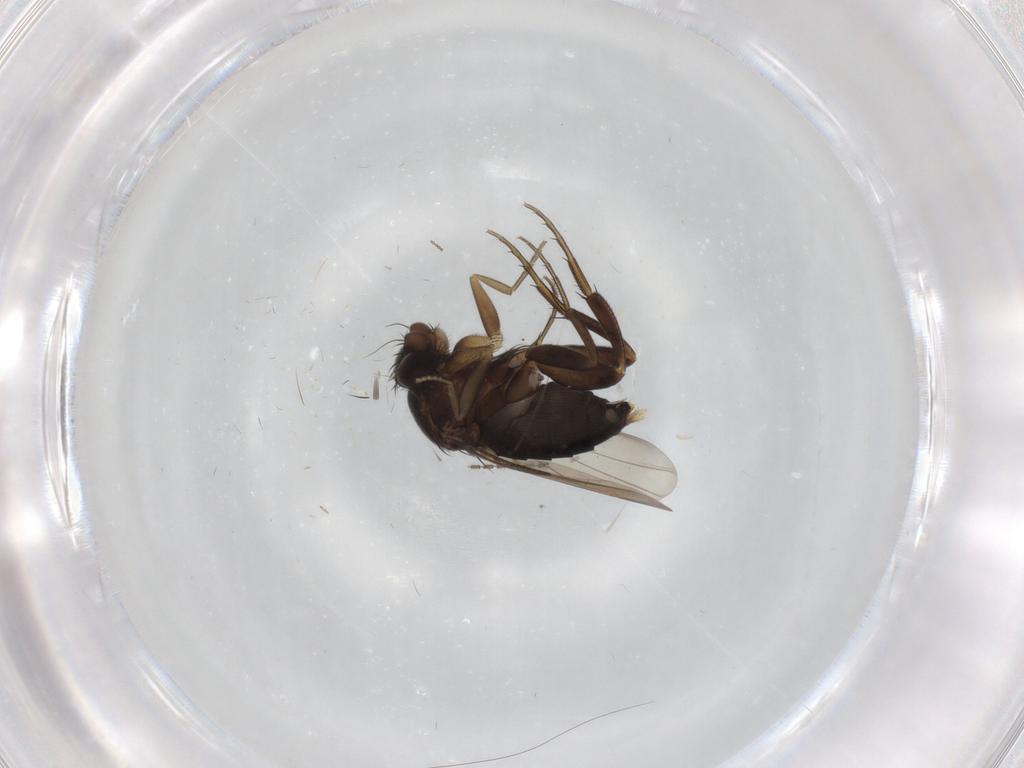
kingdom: Animalia
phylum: Arthropoda
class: Insecta
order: Diptera
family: Phoridae
